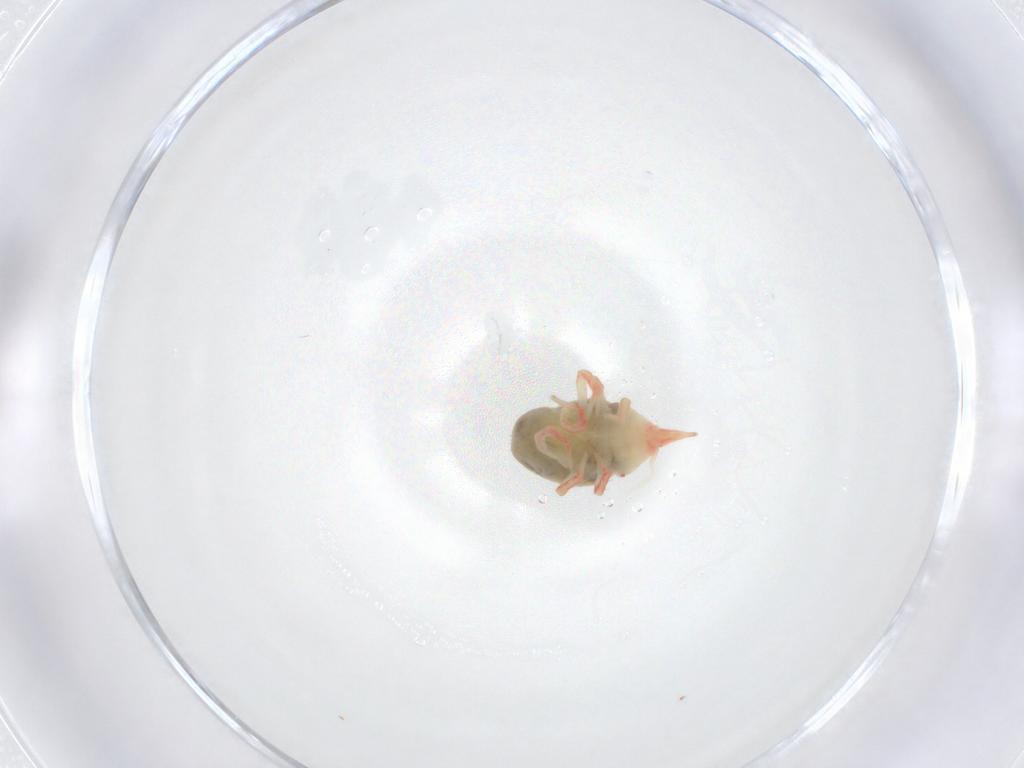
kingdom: Animalia
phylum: Arthropoda
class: Arachnida
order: Trombidiformes
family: Bdellidae
